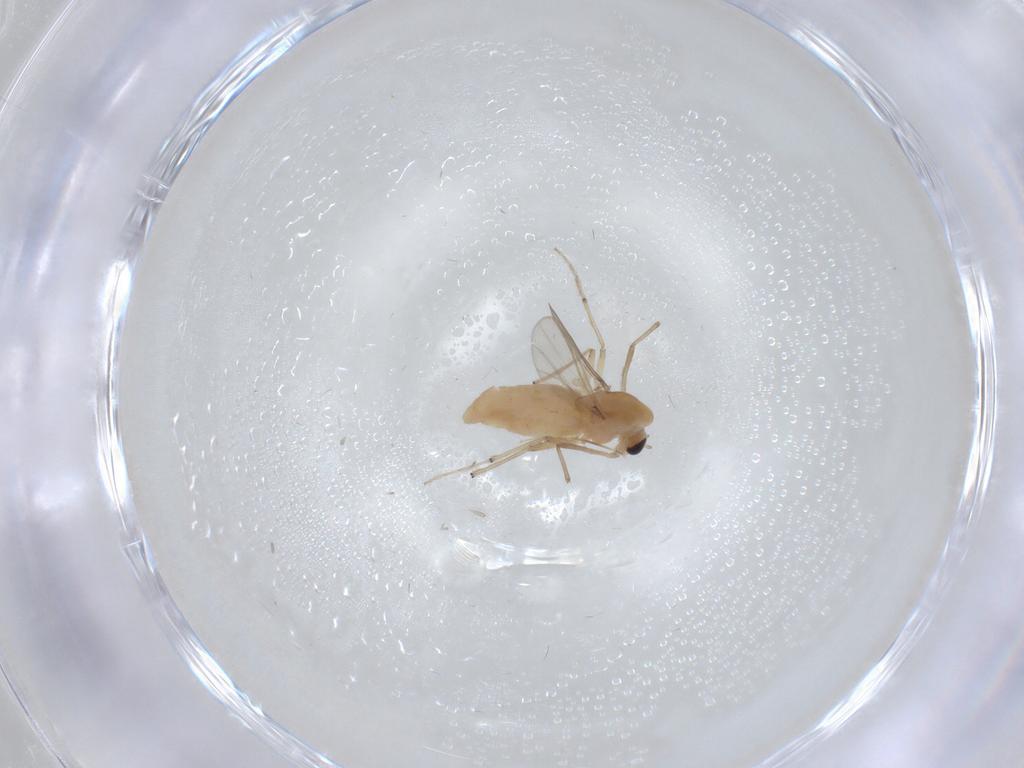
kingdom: Animalia
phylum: Arthropoda
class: Insecta
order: Diptera
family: Chironomidae
